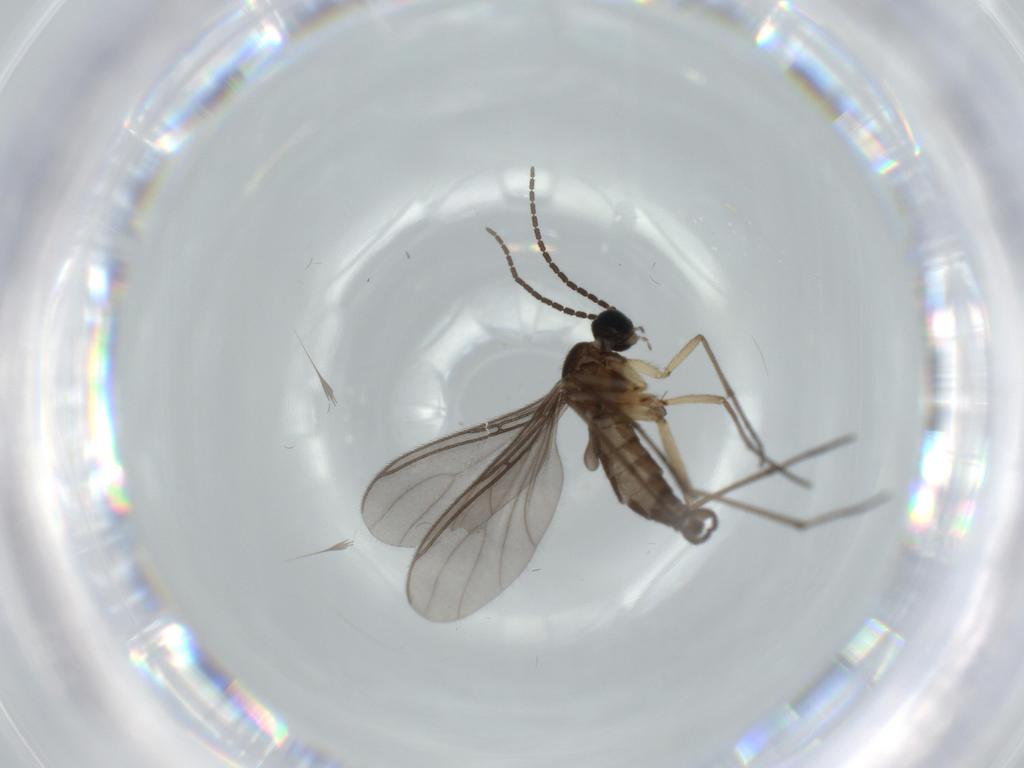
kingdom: Animalia
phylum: Arthropoda
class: Insecta
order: Diptera
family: Sciaridae
